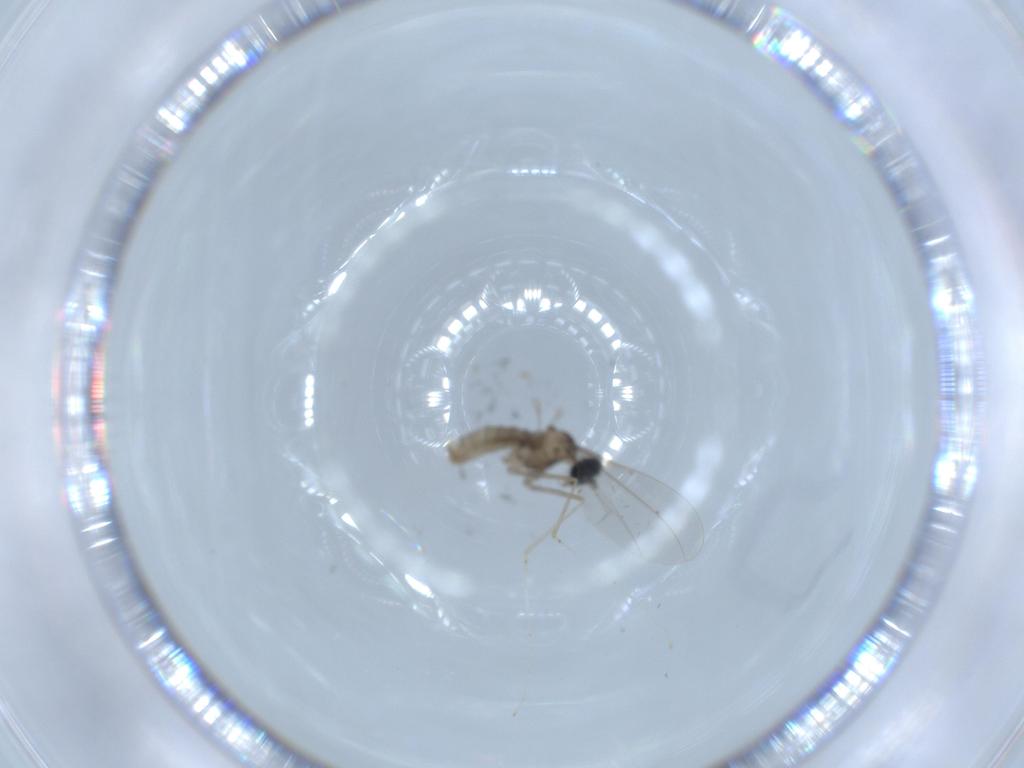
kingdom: Animalia
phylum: Arthropoda
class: Insecta
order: Diptera
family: Cecidomyiidae
